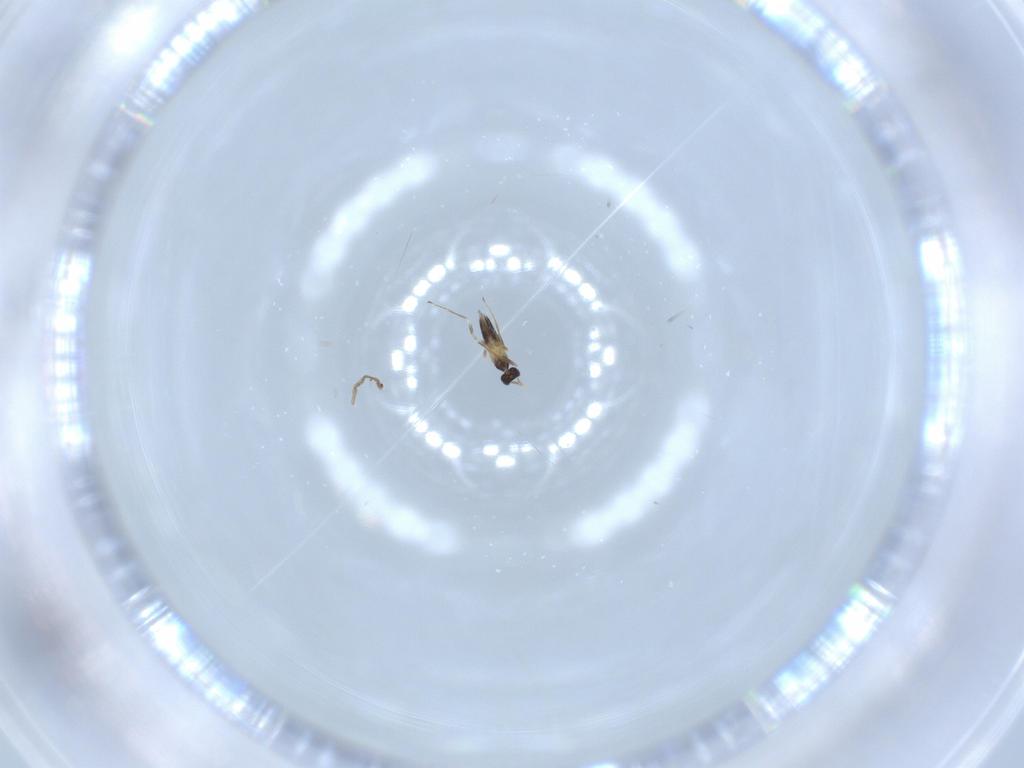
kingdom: Animalia
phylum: Arthropoda
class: Insecta
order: Hymenoptera
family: Mymaridae
